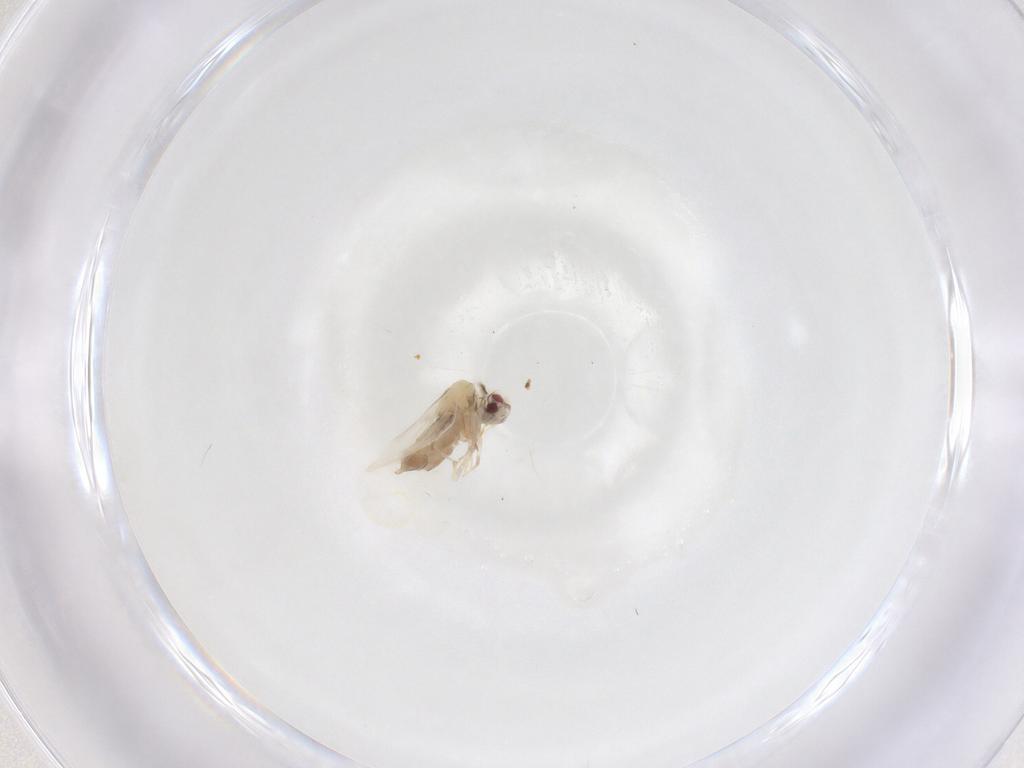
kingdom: Animalia
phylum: Arthropoda
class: Insecta
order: Hemiptera
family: Aleyrodidae
